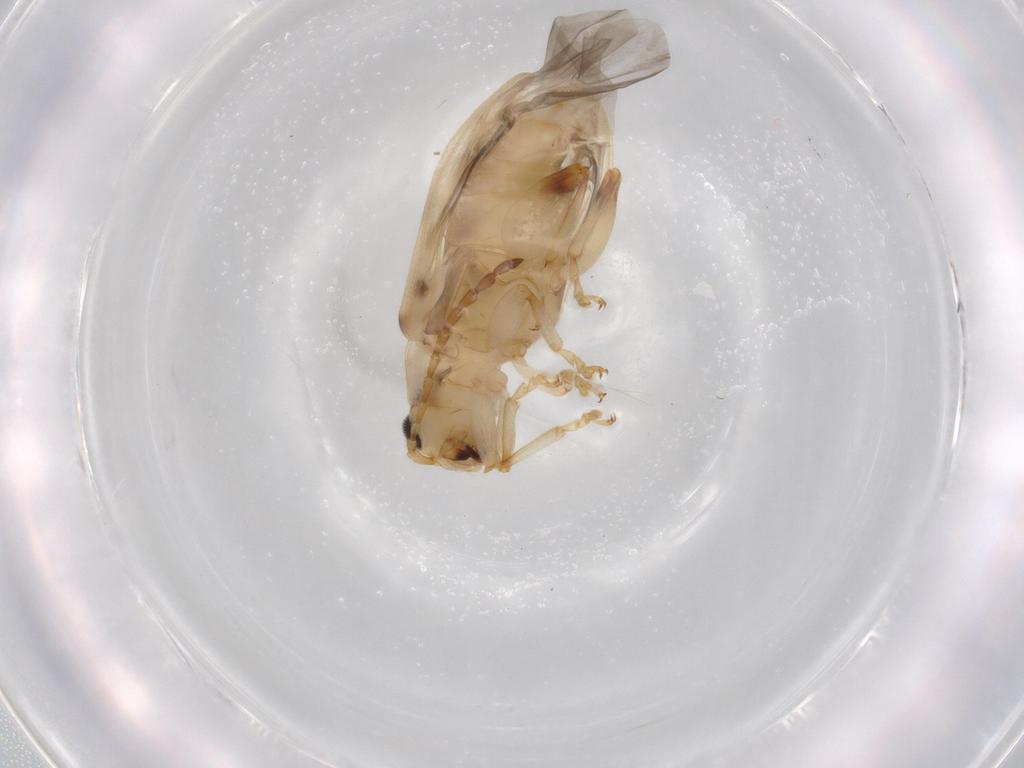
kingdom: Animalia
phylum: Arthropoda
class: Insecta
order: Coleoptera
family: Chrysomelidae
